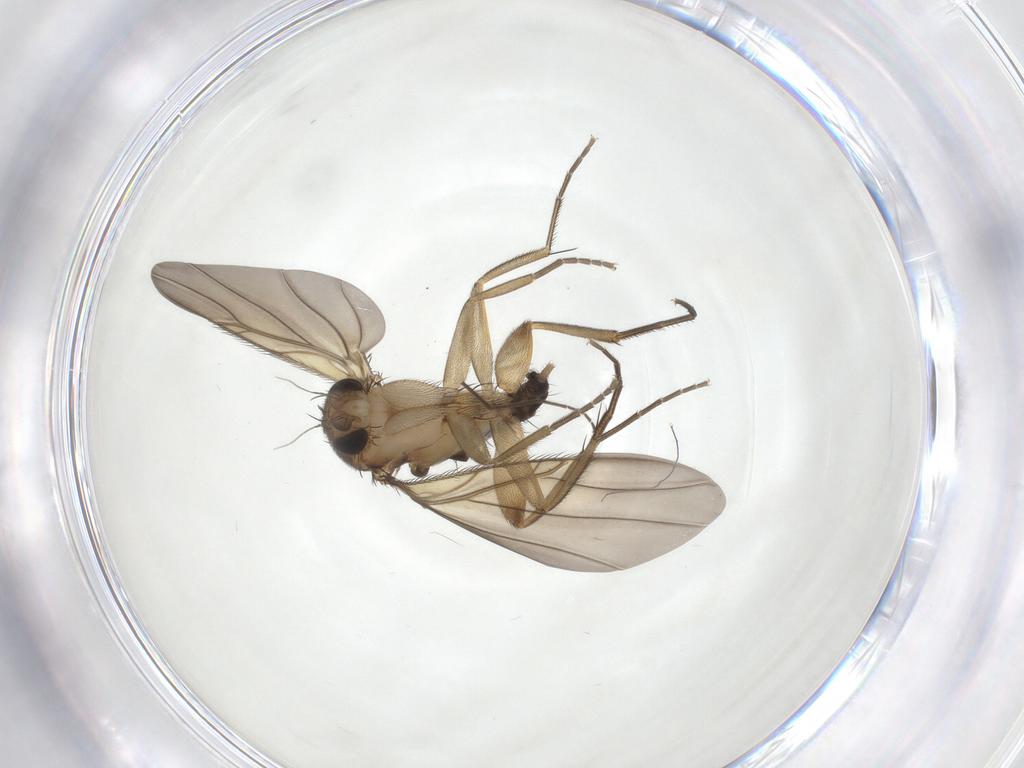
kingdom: Animalia
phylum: Arthropoda
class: Insecta
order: Diptera
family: Phoridae
